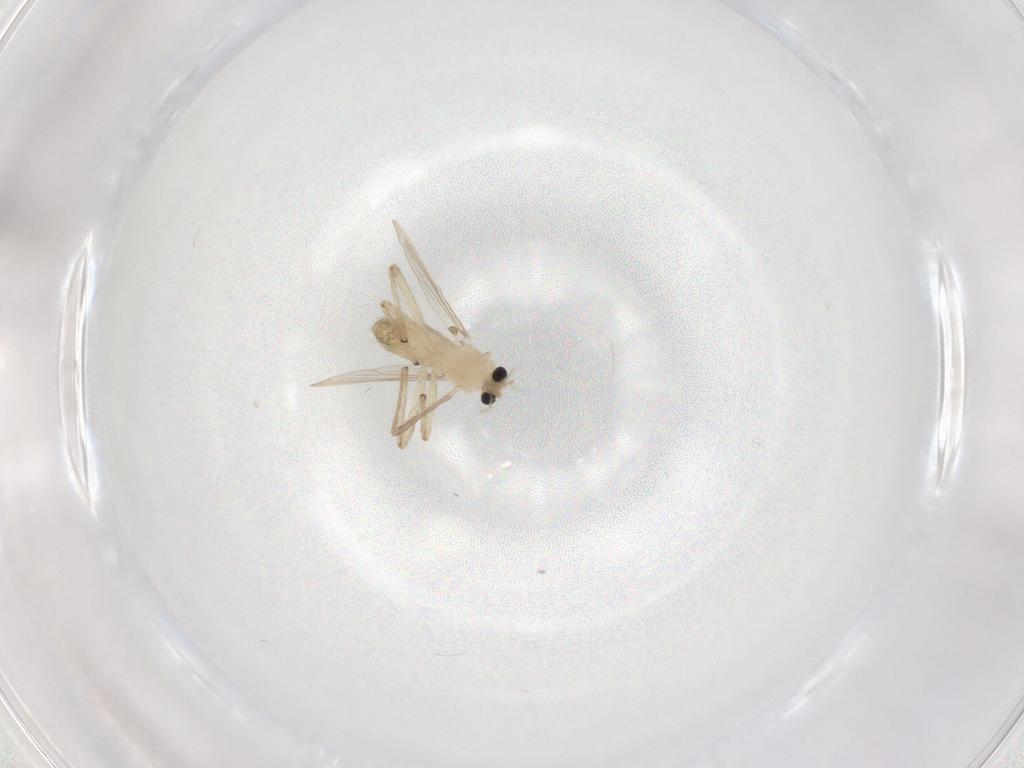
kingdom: Animalia
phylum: Arthropoda
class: Insecta
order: Diptera
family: Chironomidae
